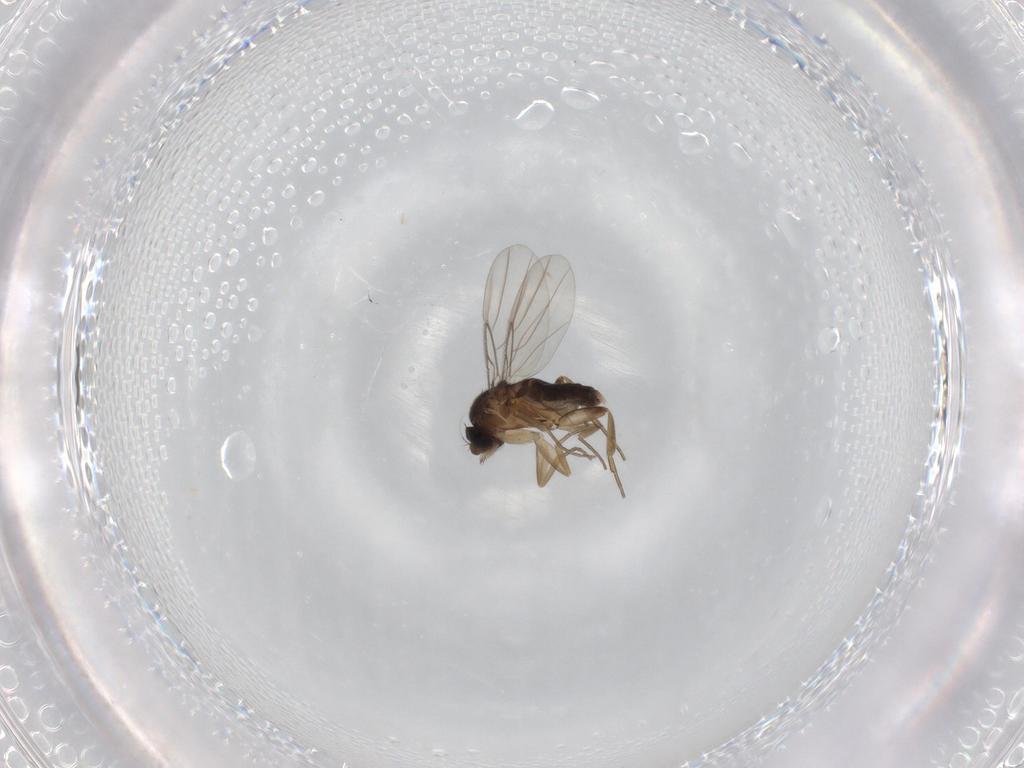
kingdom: Animalia
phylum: Arthropoda
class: Insecta
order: Diptera
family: Phoridae
